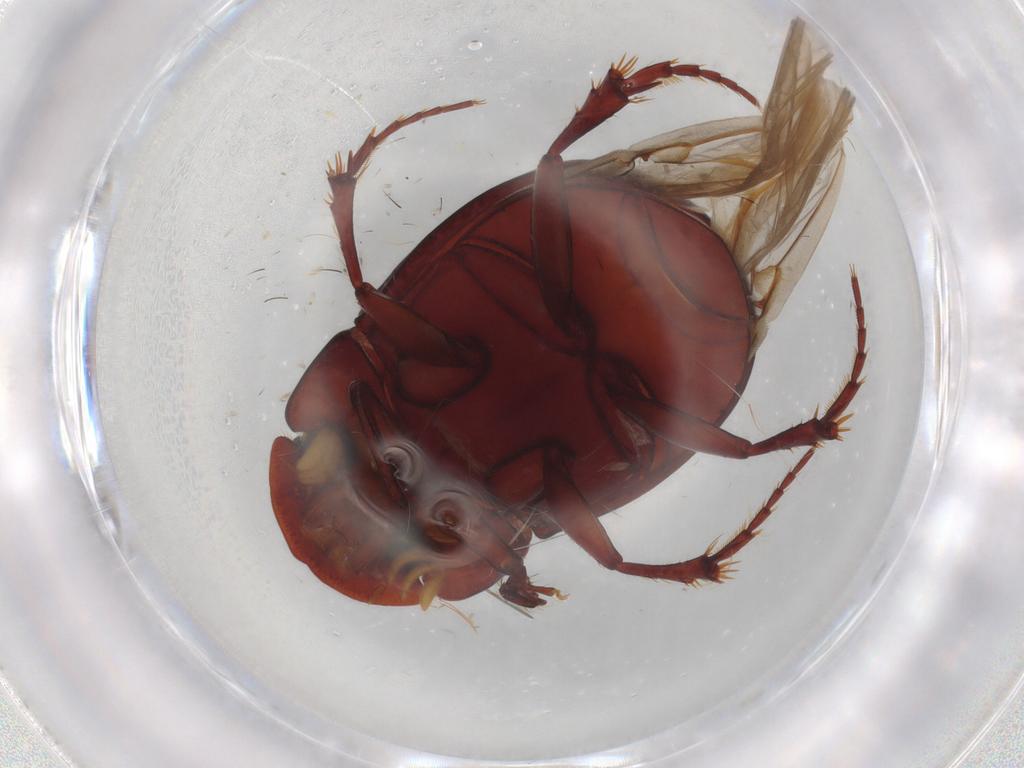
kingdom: Animalia
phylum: Arthropoda
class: Insecta
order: Coleoptera
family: Scarabaeidae
